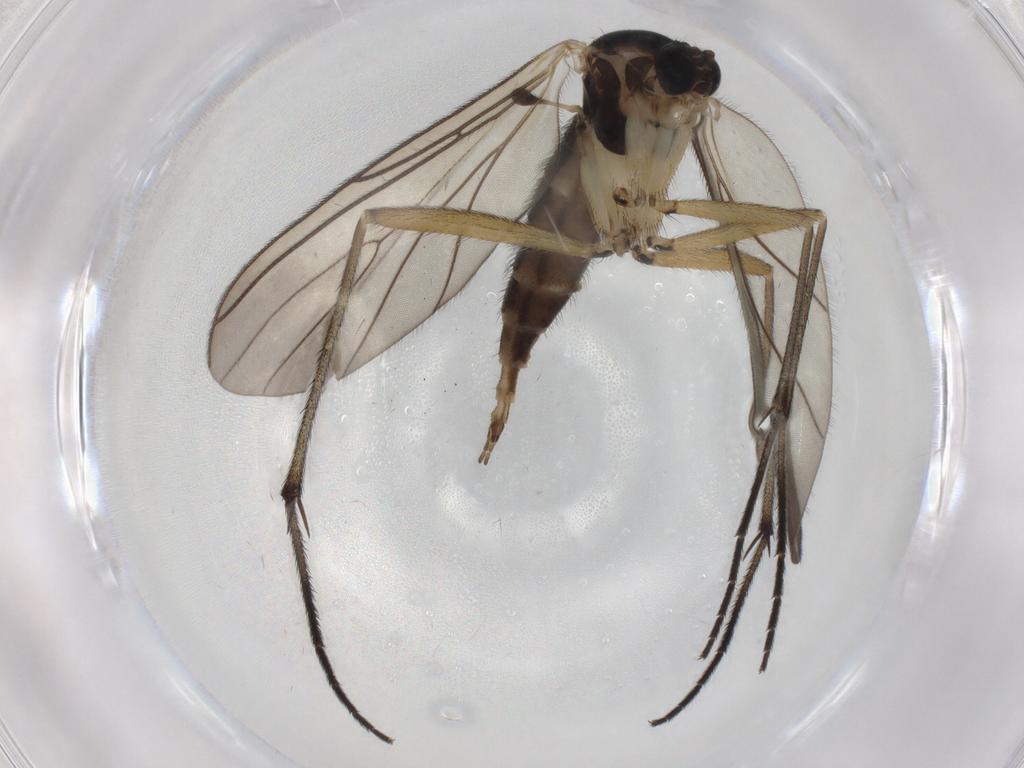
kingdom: Animalia
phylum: Arthropoda
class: Insecta
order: Diptera
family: Sciaridae
